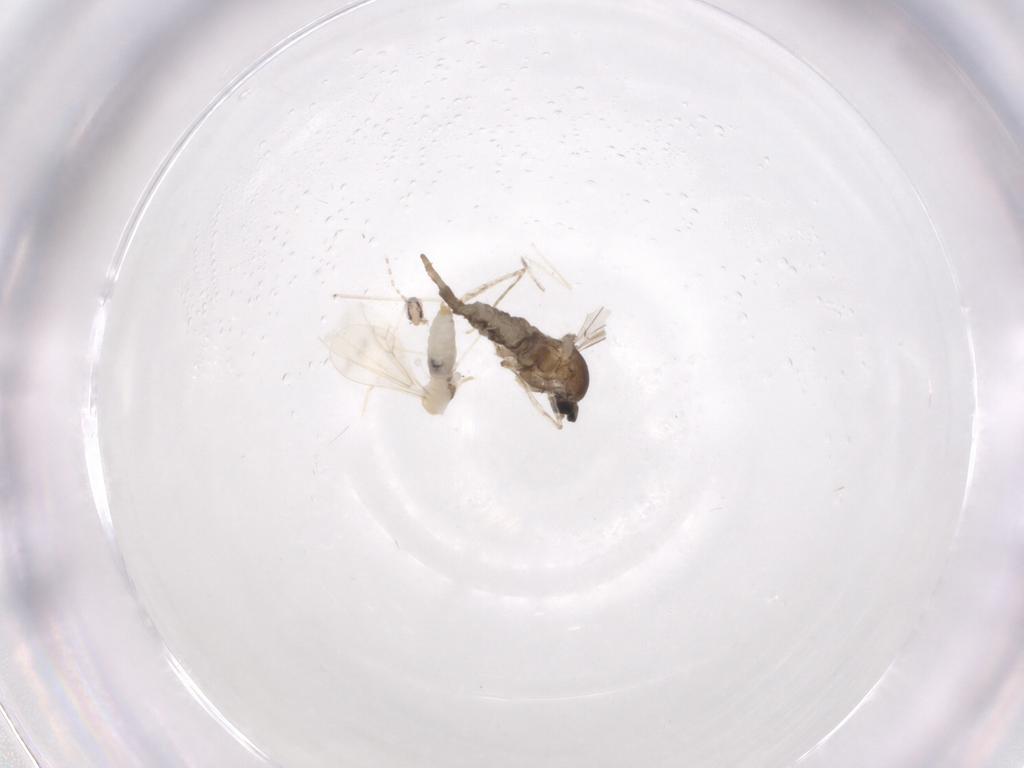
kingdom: Animalia
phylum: Arthropoda
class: Insecta
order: Diptera
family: Cecidomyiidae
